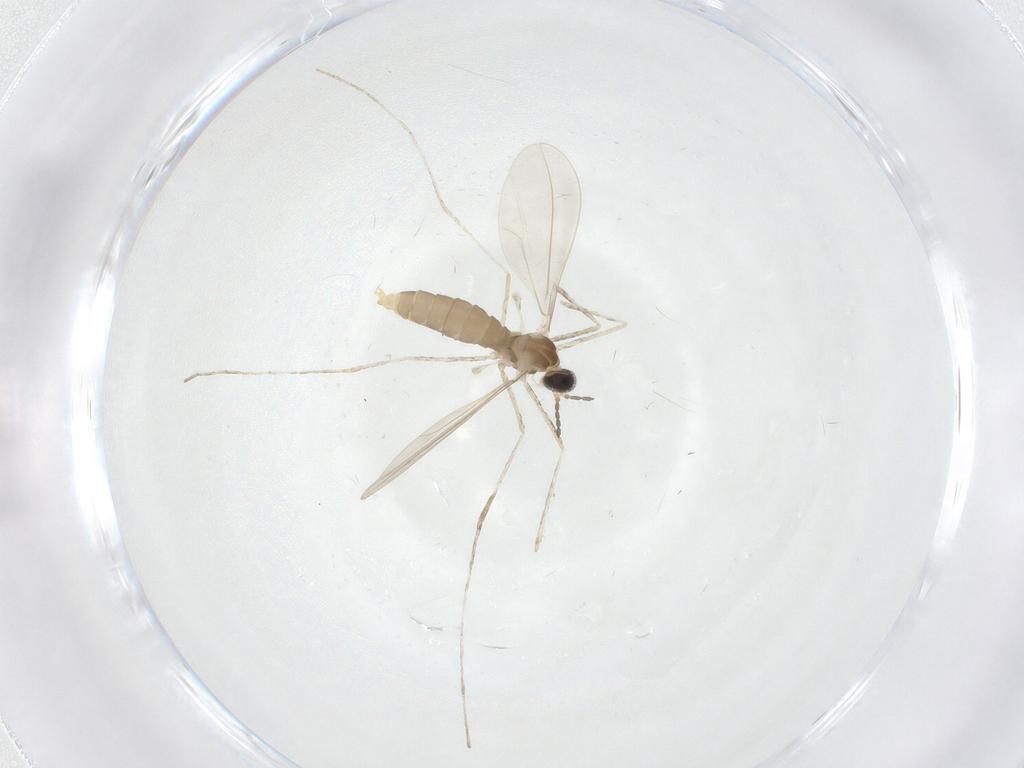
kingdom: Animalia
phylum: Arthropoda
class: Insecta
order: Diptera
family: Cecidomyiidae
